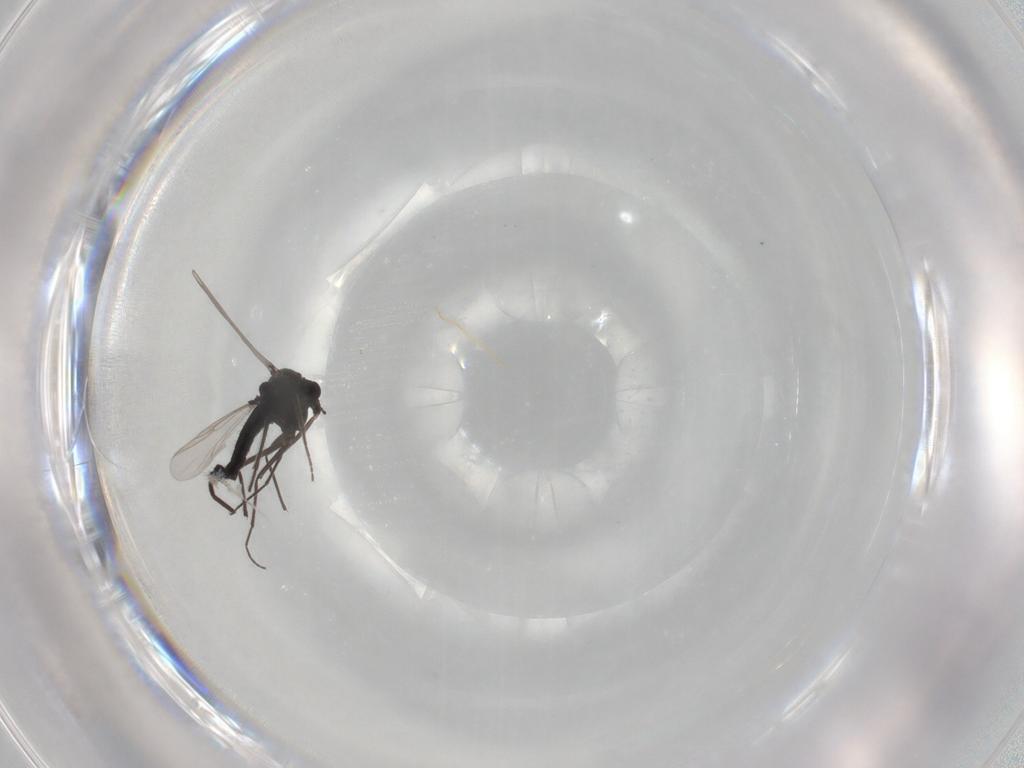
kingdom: Animalia
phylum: Arthropoda
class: Insecta
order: Diptera
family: Chironomidae
